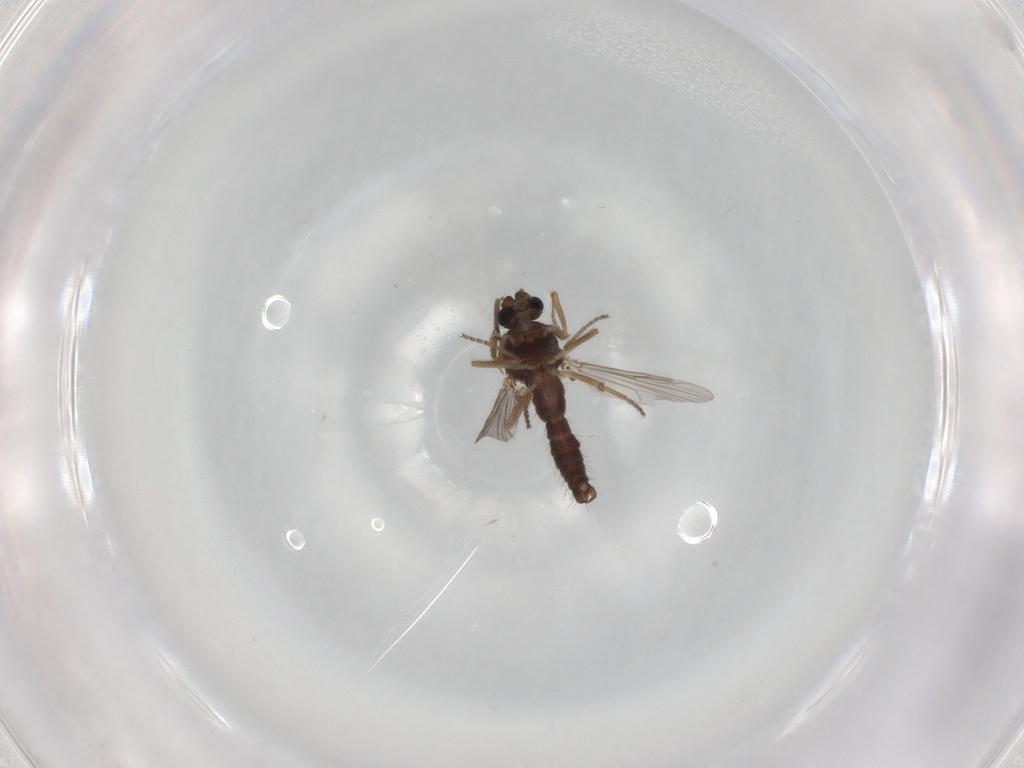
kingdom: Animalia
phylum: Arthropoda
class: Insecta
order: Diptera
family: Ceratopogonidae
